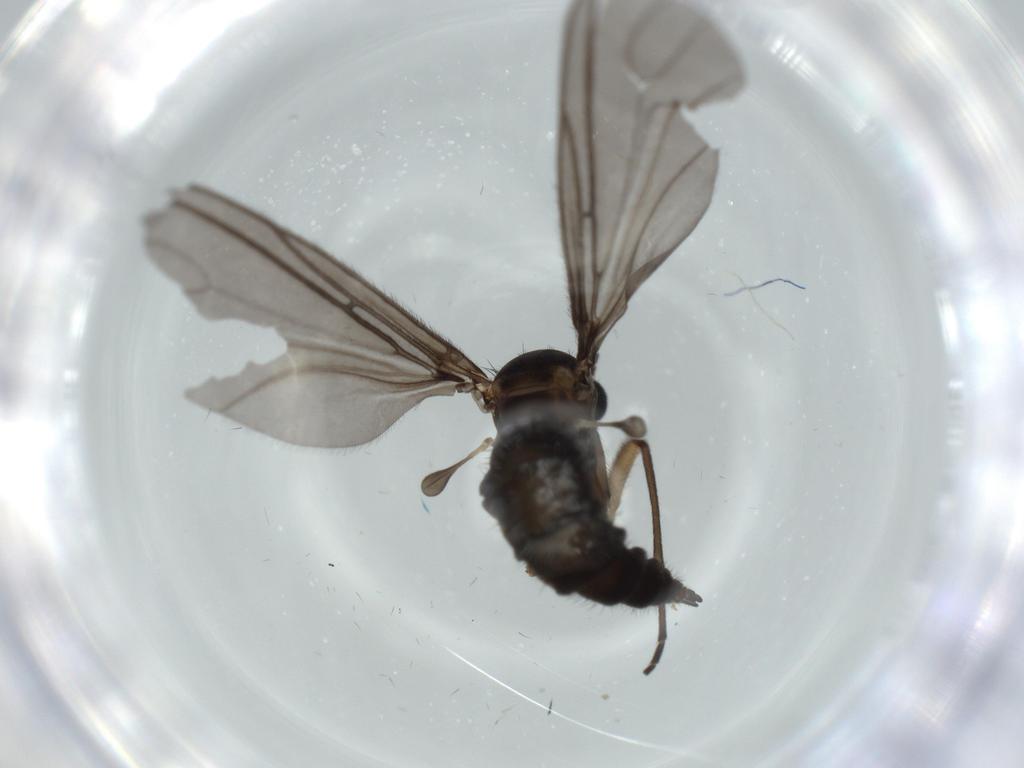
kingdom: Animalia
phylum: Arthropoda
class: Insecta
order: Diptera
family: Sciaridae
